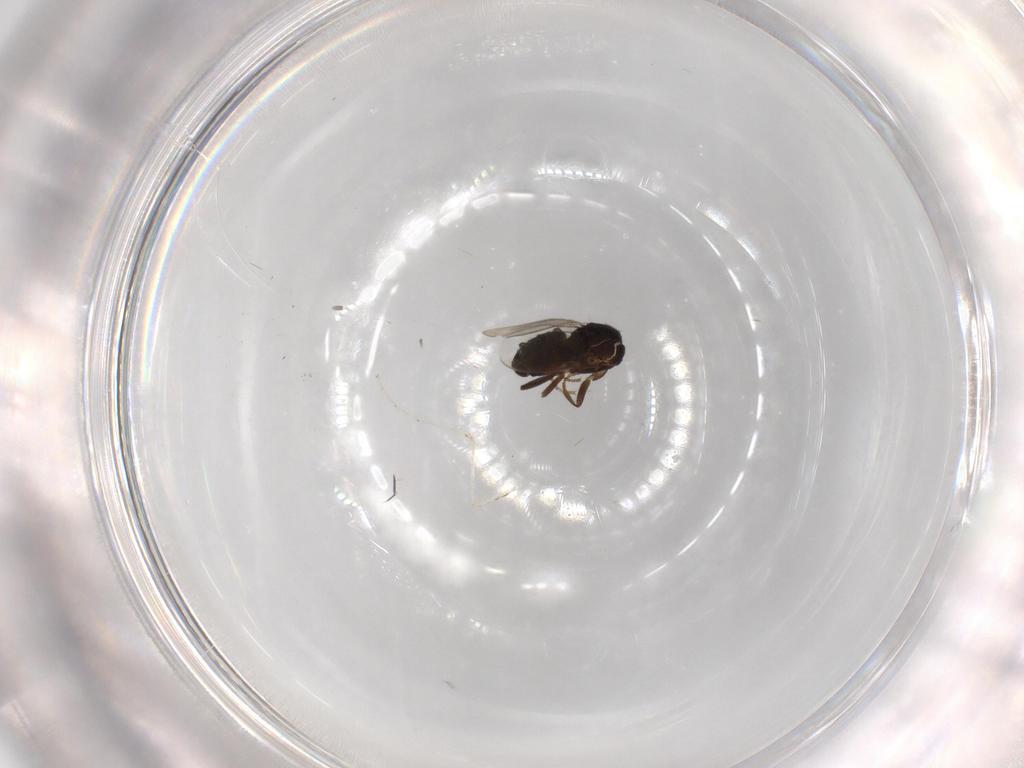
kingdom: Animalia
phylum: Arthropoda
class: Insecta
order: Diptera
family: Cecidomyiidae
